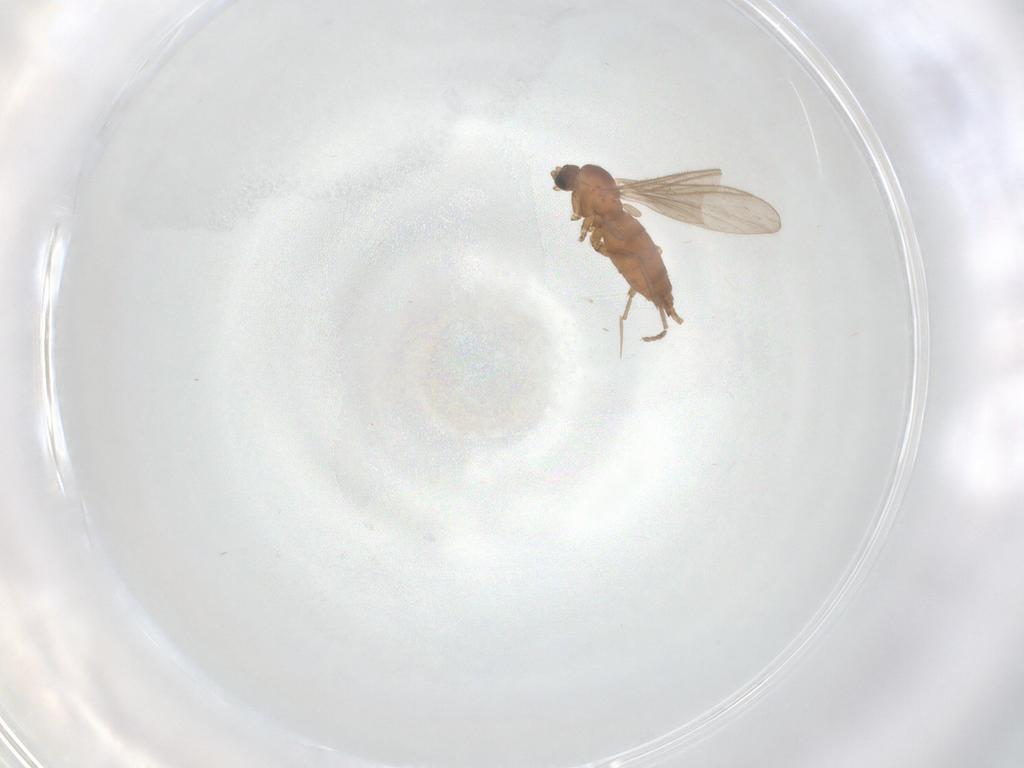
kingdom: Animalia
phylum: Arthropoda
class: Insecta
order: Diptera
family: Sciaridae
